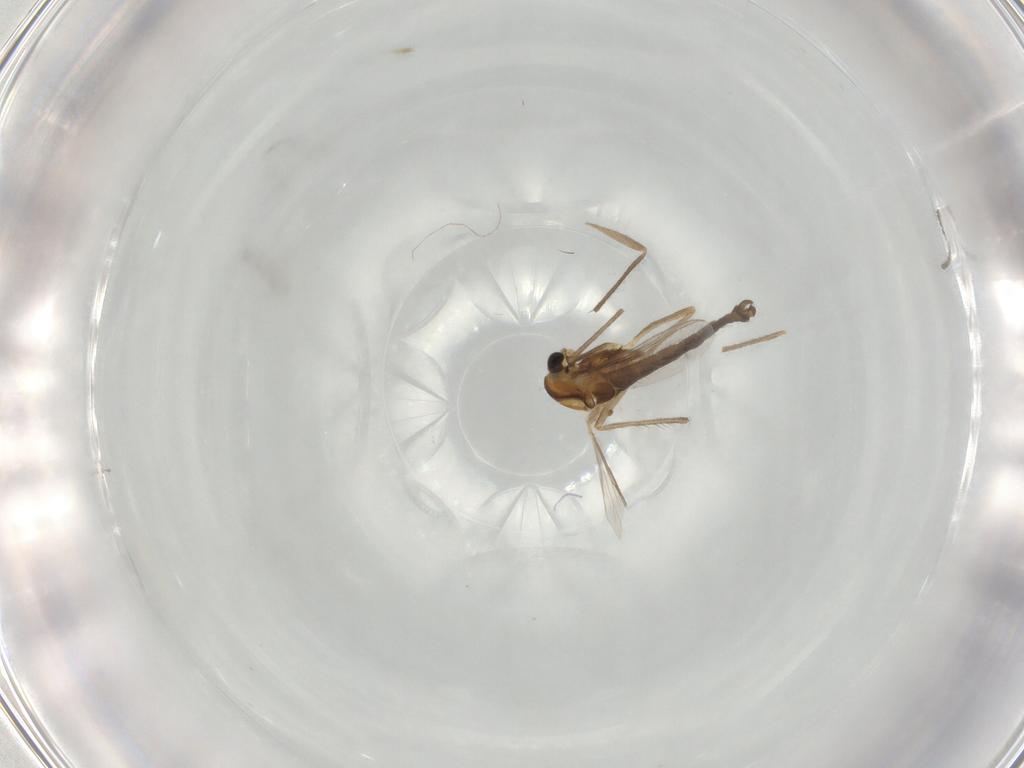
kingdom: Animalia
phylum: Arthropoda
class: Insecta
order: Diptera
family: Chironomidae
